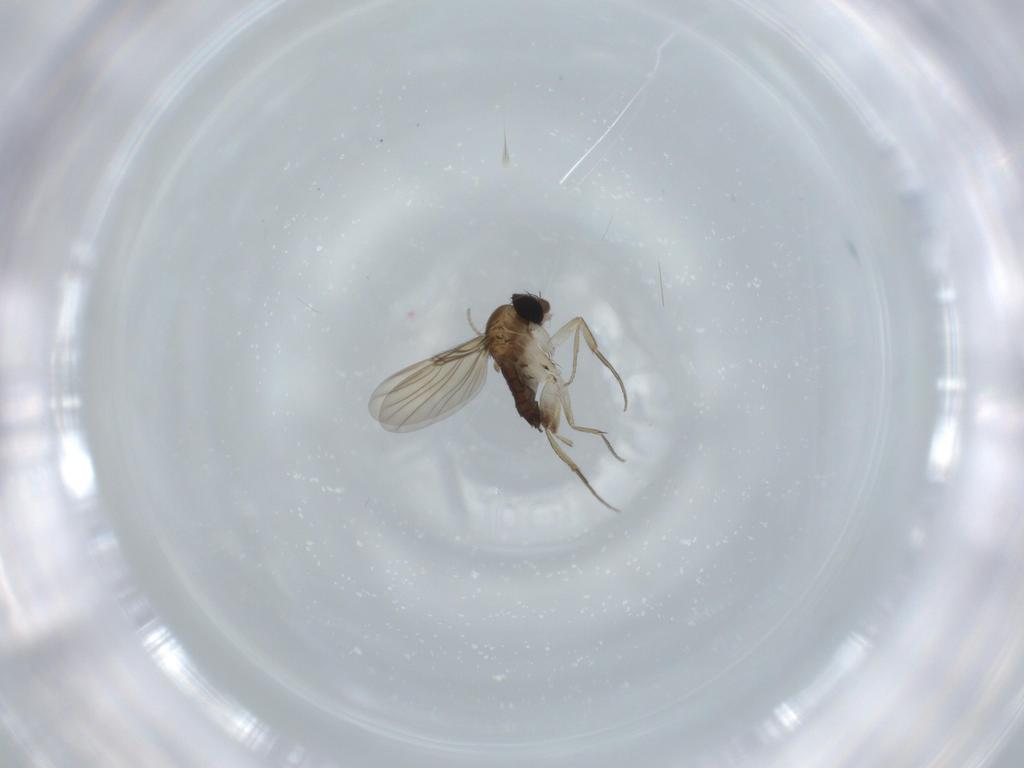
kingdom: Animalia
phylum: Arthropoda
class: Insecta
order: Diptera
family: Phoridae
